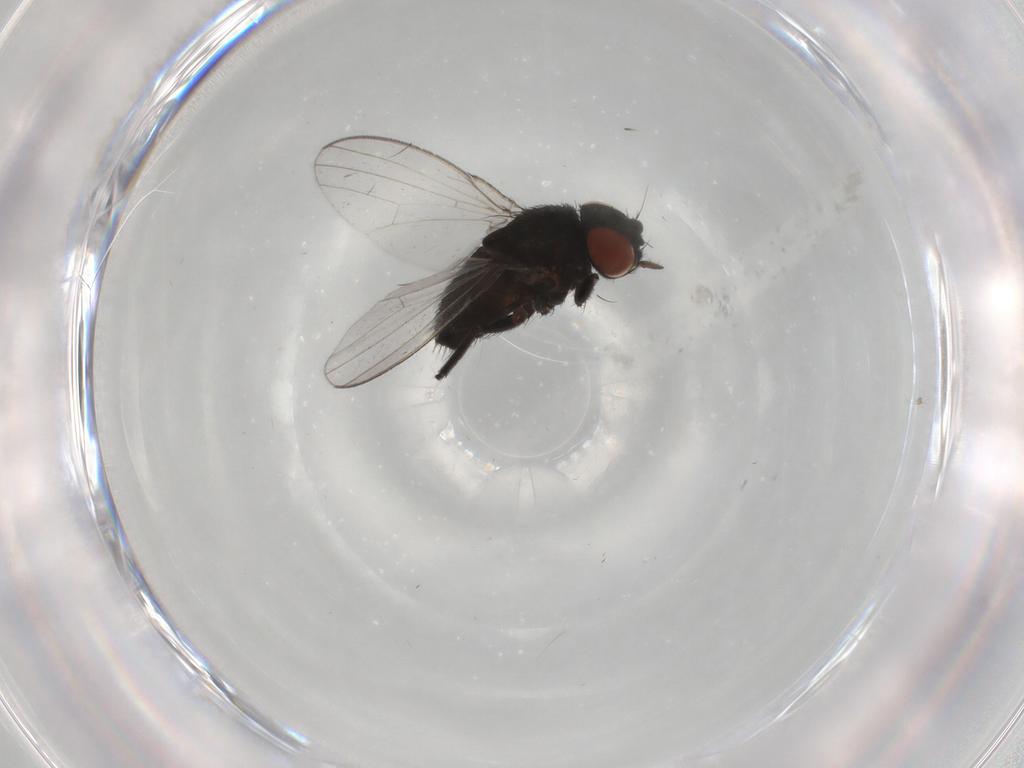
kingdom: Animalia
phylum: Arthropoda
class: Insecta
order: Diptera
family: Milichiidae
